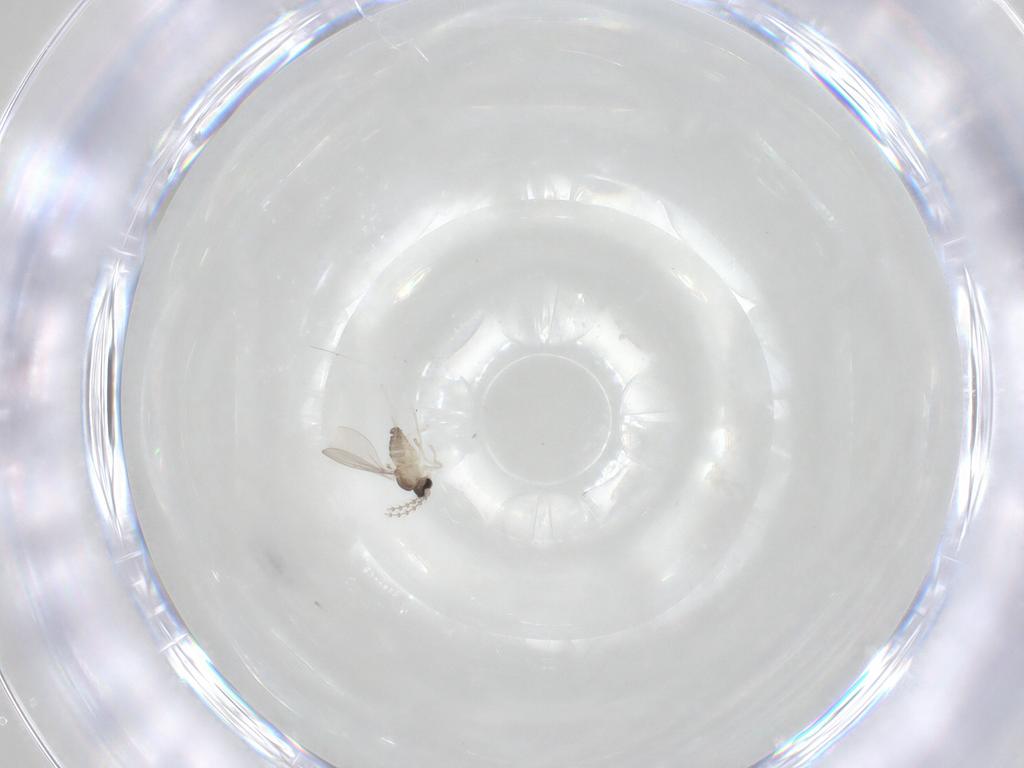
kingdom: Animalia
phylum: Arthropoda
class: Insecta
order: Diptera
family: Cecidomyiidae
